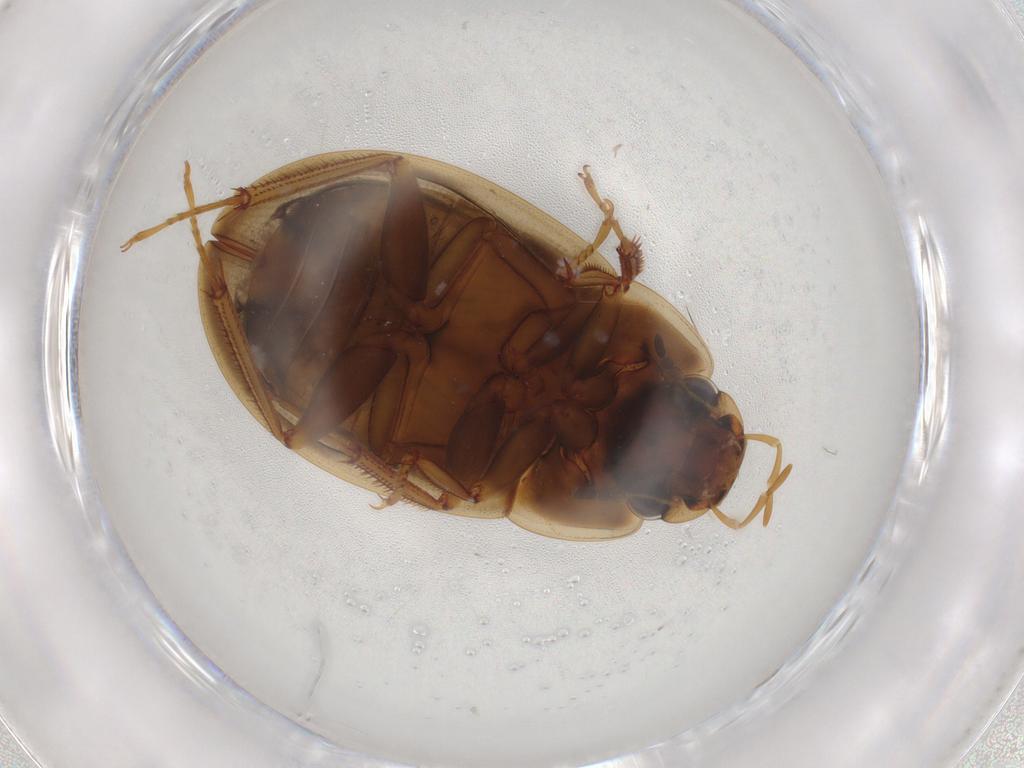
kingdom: Animalia
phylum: Arthropoda
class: Insecta
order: Coleoptera
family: Hydrophilidae
